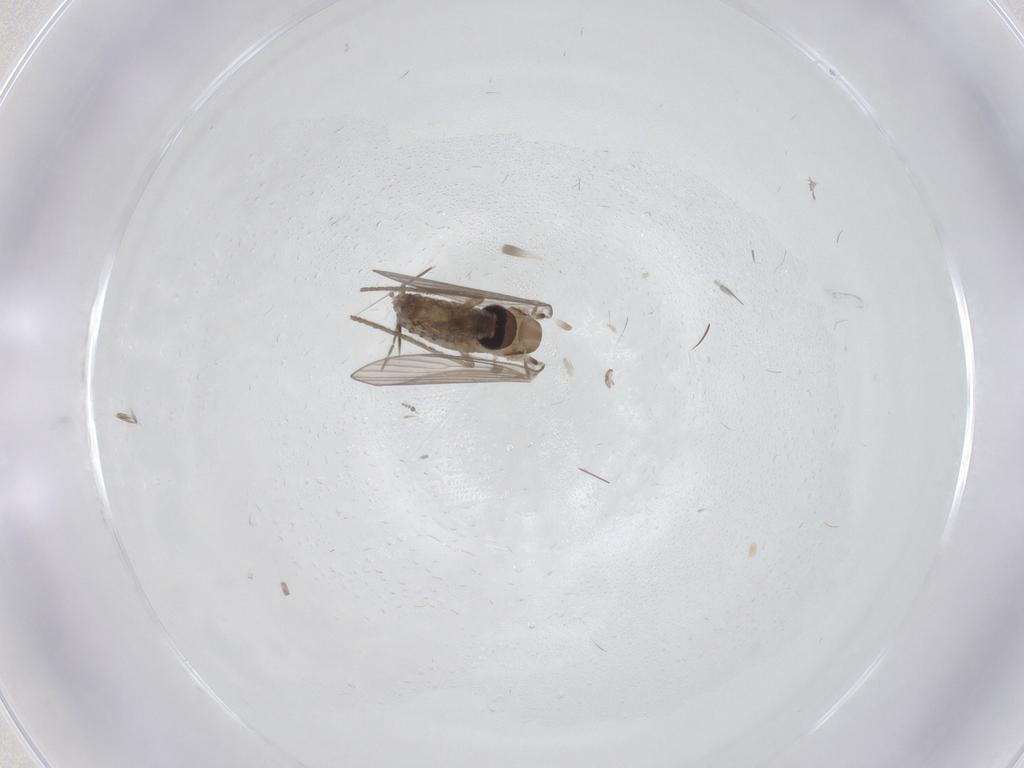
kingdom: Animalia
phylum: Arthropoda
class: Insecta
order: Diptera
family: Psychodidae
